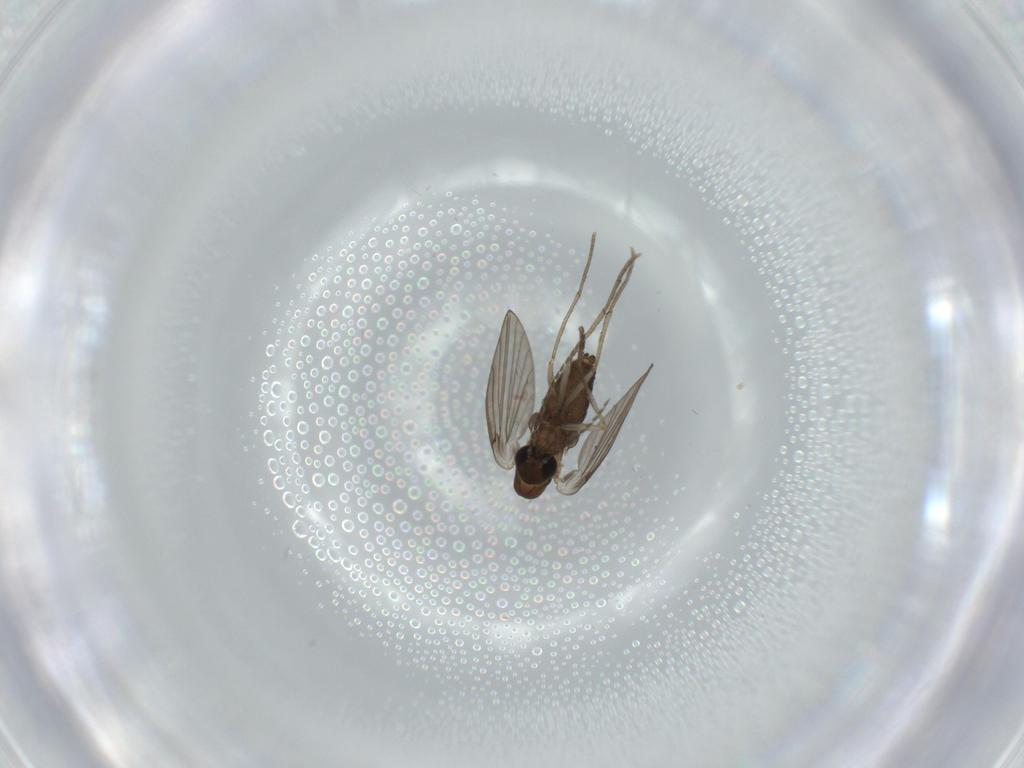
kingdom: Animalia
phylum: Arthropoda
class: Insecta
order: Diptera
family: Psychodidae
